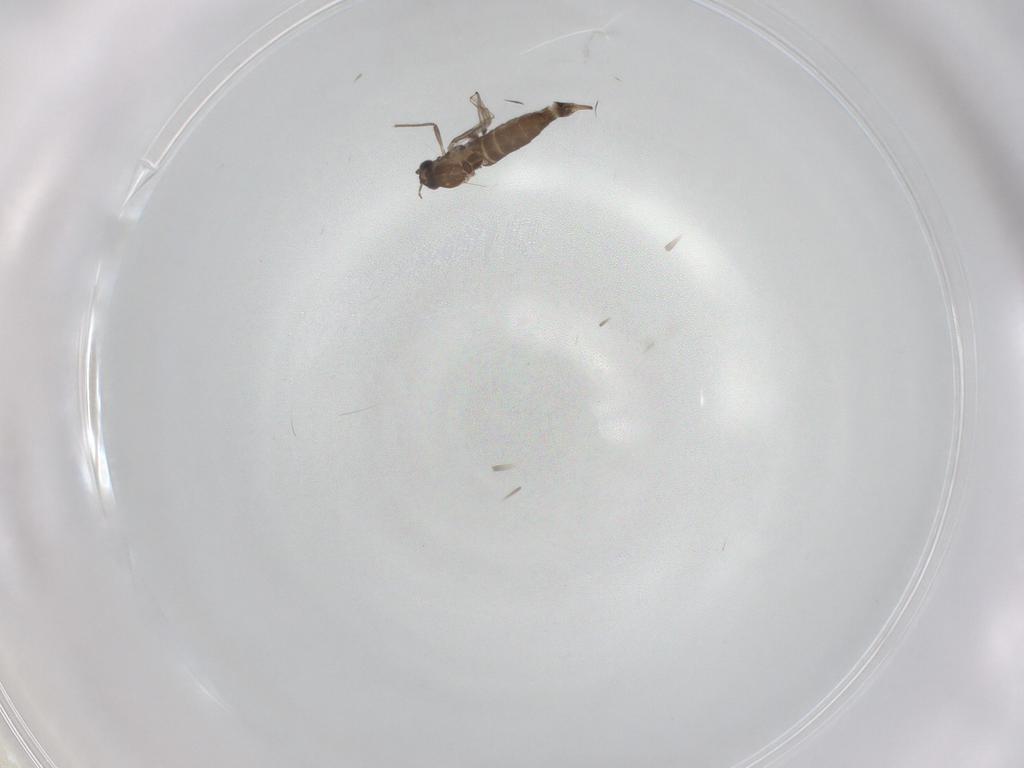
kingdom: Animalia
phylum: Arthropoda
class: Insecta
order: Diptera
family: Chironomidae
